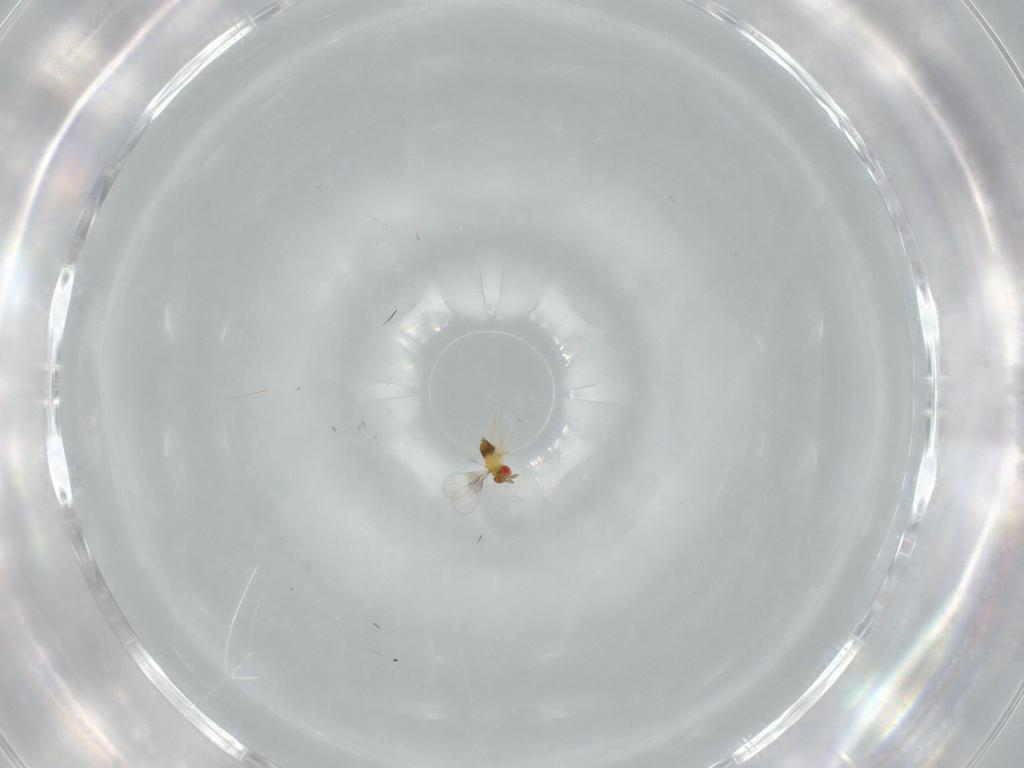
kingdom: Animalia
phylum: Arthropoda
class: Insecta
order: Hymenoptera
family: Trichogrammatidae
